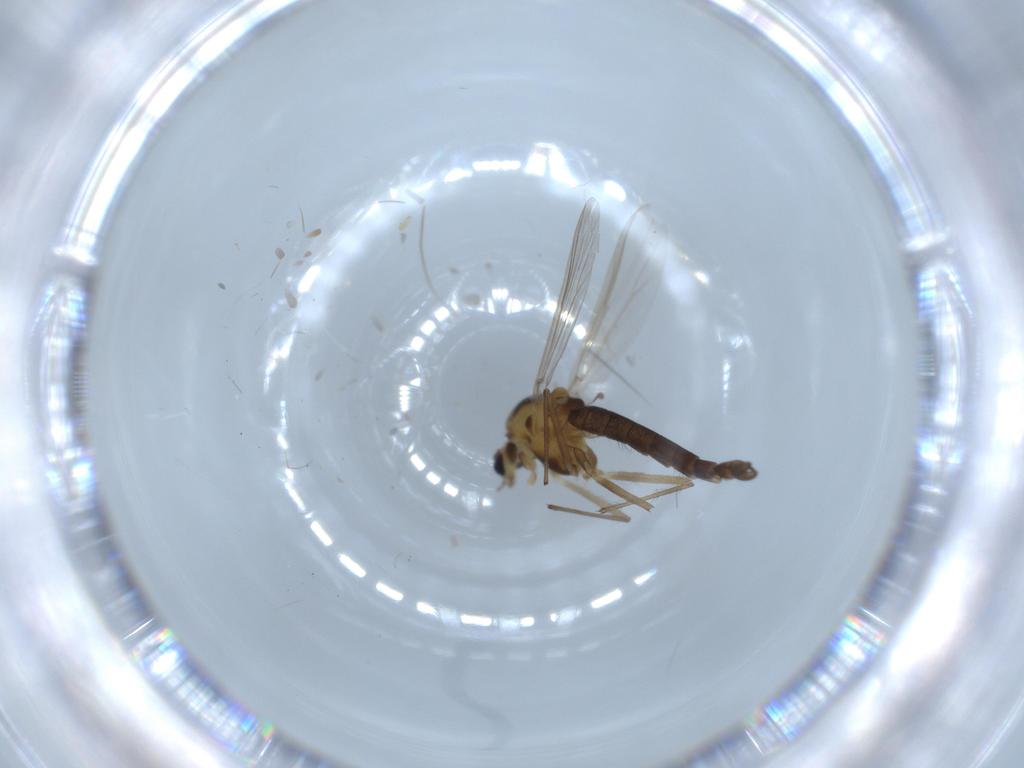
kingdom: Animalia
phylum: Arthropoda
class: Insecta
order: Diptera
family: Chironomidae
